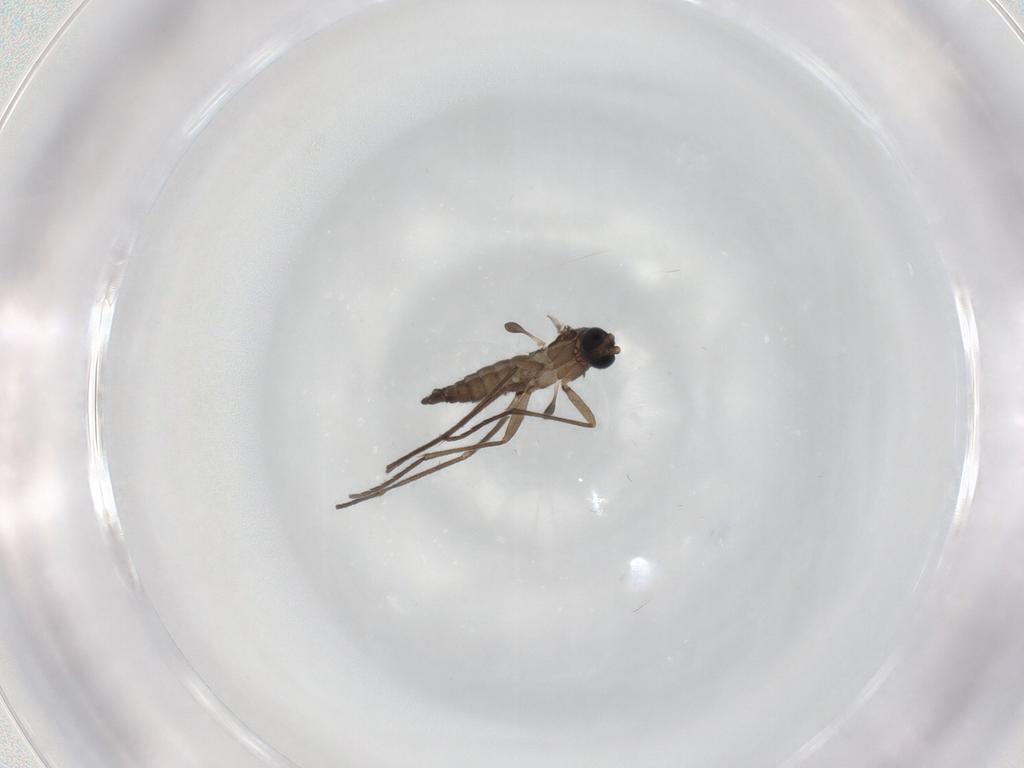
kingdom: Animalia
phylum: Arthropoda
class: Insecta
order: Diptera
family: Sciaridae
